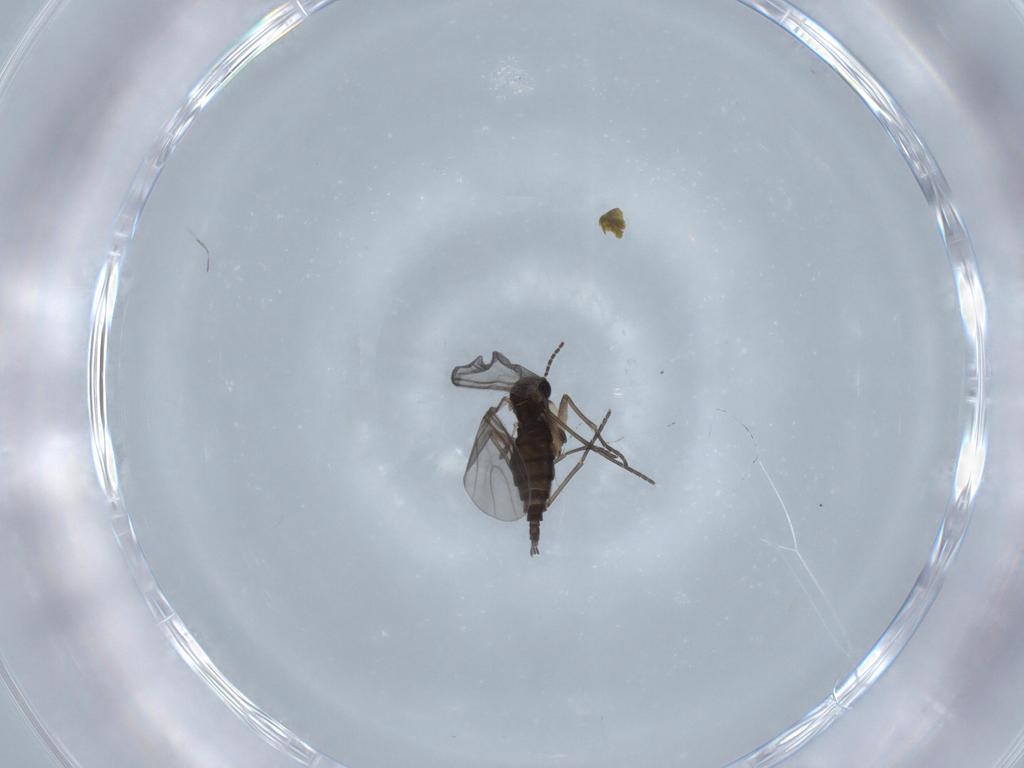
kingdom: Animalia
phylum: Arthropoda
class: Insecta
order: Diptera
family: Sciaridae
